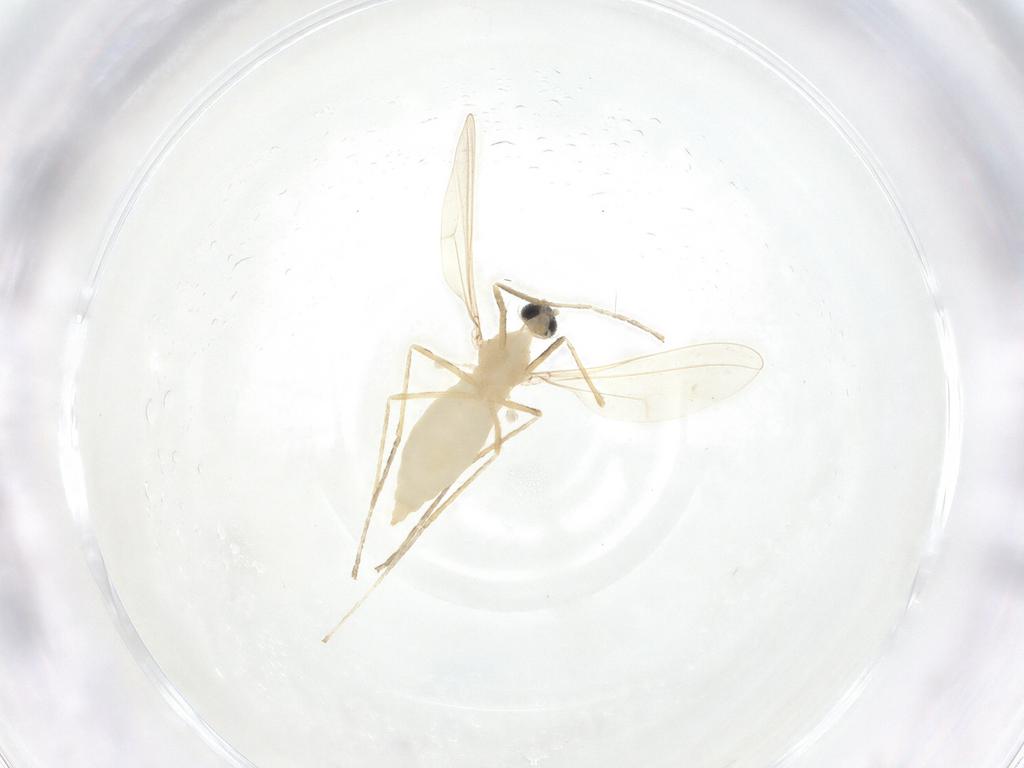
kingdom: Animalia
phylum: Arthropoda
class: Insecta
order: Diptera
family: Cecidomyiidae
